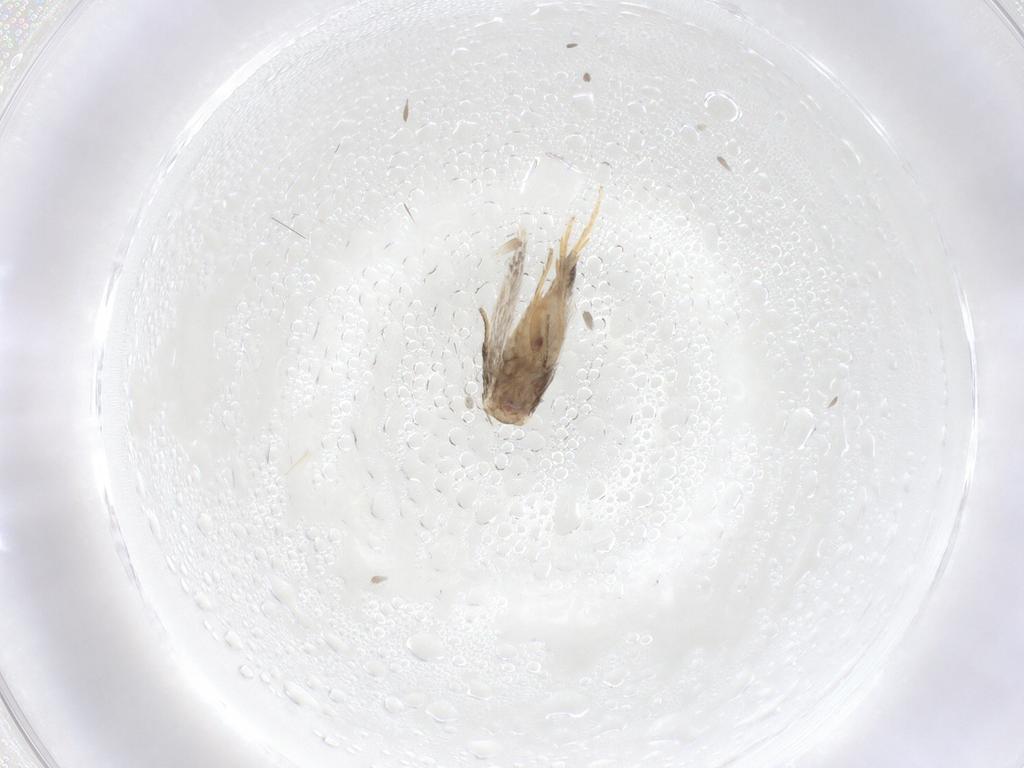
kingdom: Animalia
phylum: Arthropoda
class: Insecta
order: Lepidoptera
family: Nepticulidae
